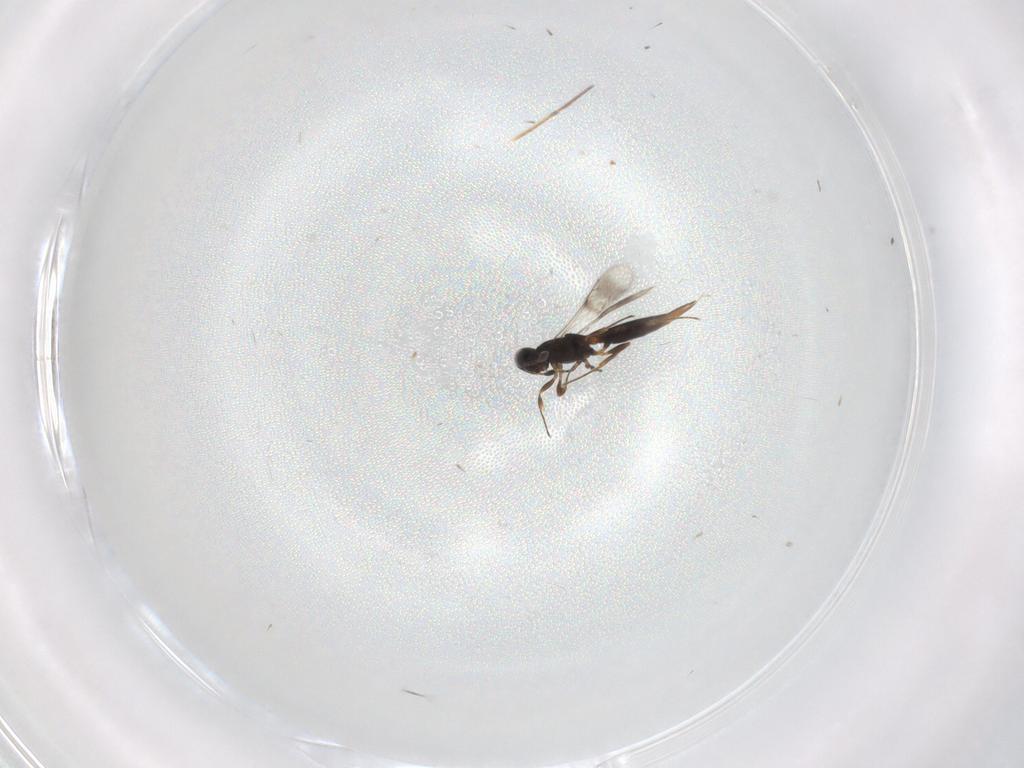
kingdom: Animalia
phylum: Arthropoda
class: Insecta
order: Hymenoptera
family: Scelionidae
